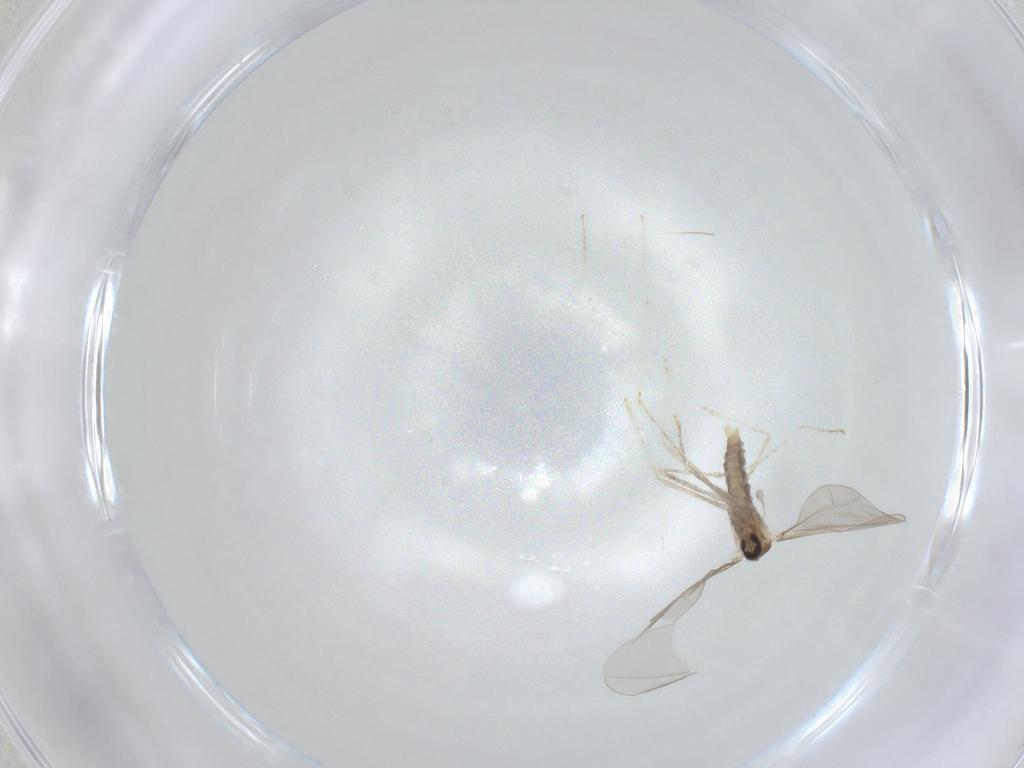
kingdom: Animalia
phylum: Arthropoda
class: Insecta
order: Diptera
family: Cecidomyiidae
